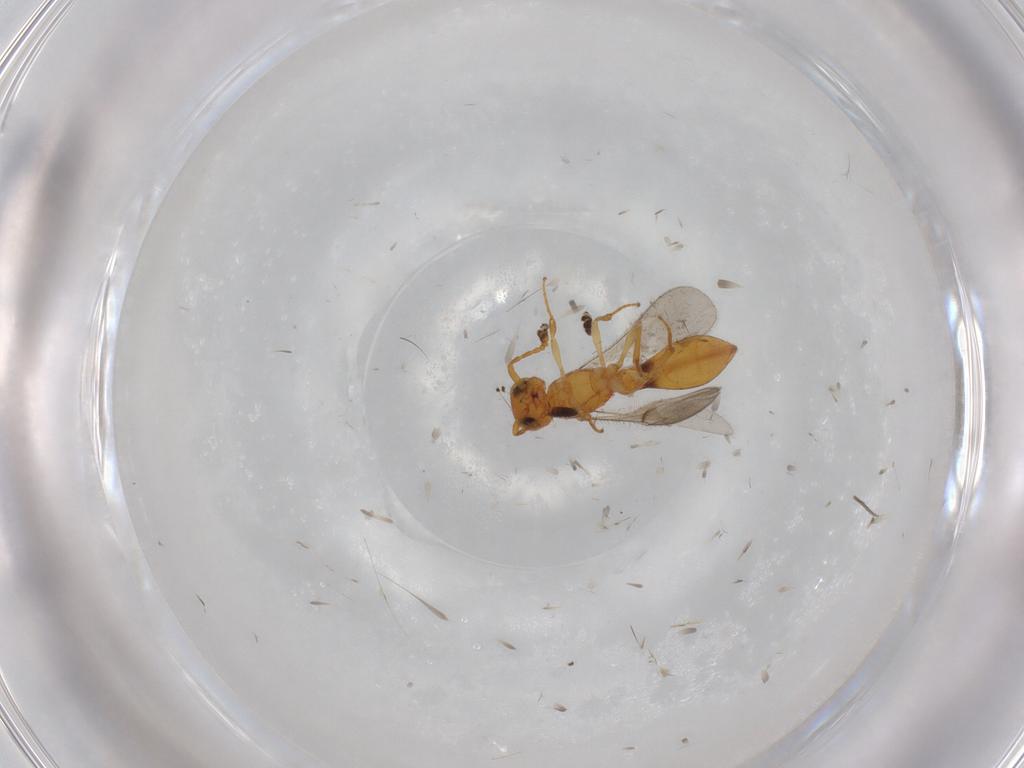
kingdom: Animalia
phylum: Arthropoda
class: Insecta
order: Hymenoptera
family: Scelionidae
